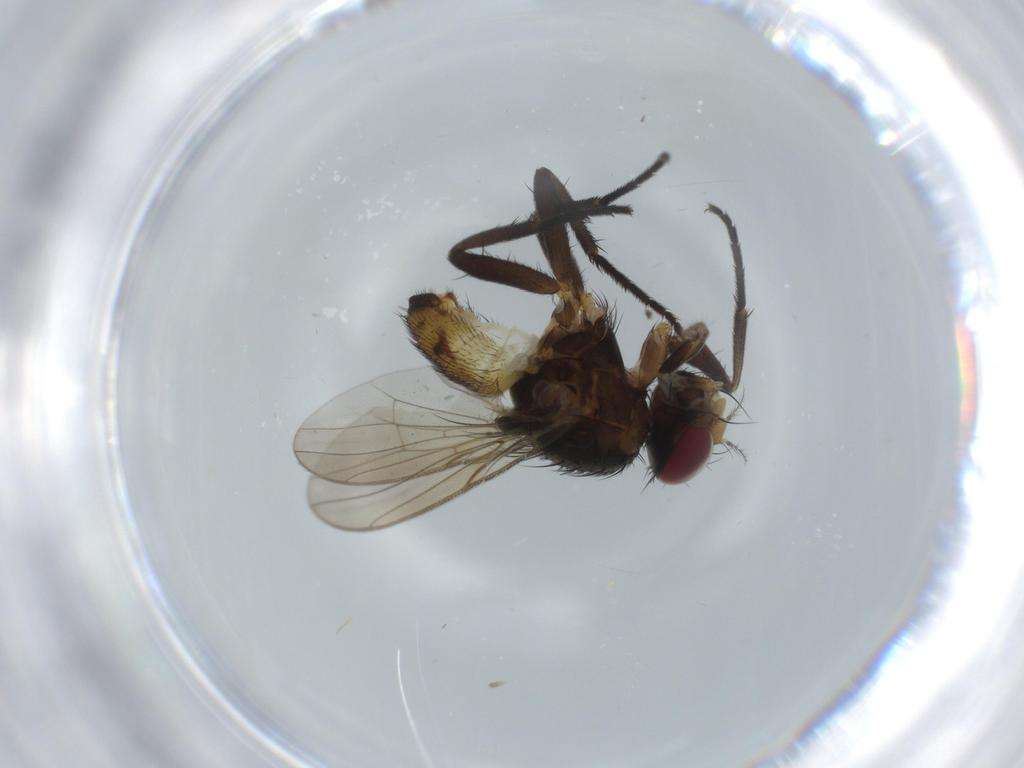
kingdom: Animalia
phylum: Arthropoda
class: Insecta
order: Diptera
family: Anthomyiidae
